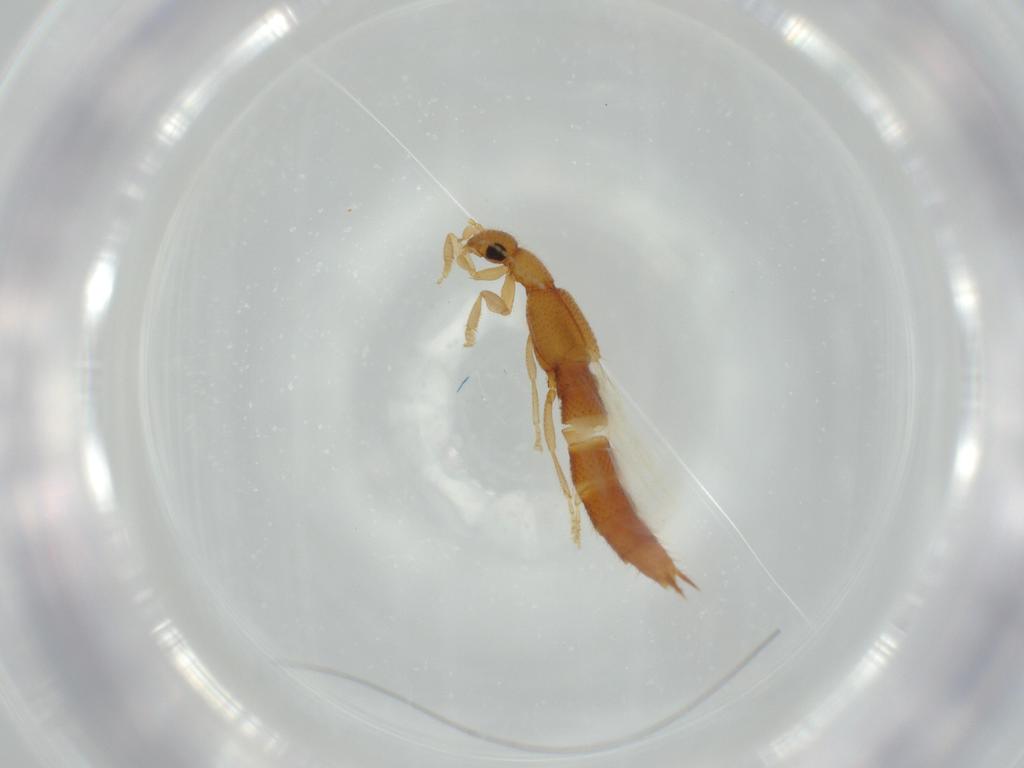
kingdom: Animalia
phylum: Arthropoda
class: Insecta
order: Coleoptera
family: Staphylinidae
